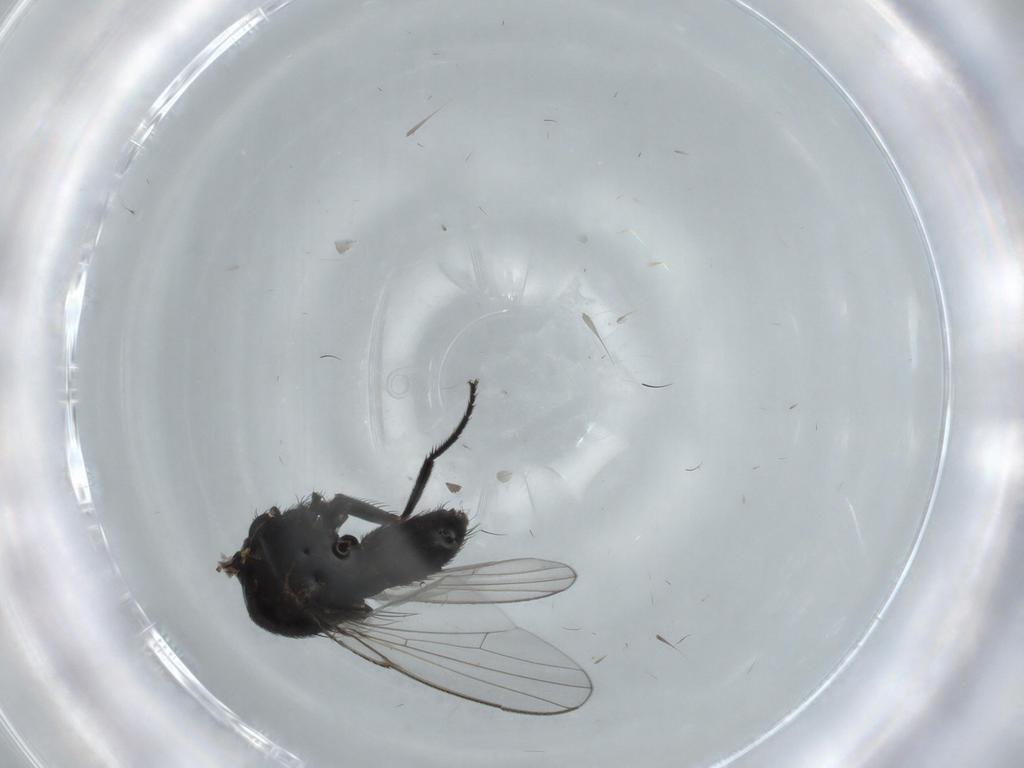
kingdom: Animalia
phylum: Arthropoda
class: Insecta
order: Diptera
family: Milichiidae
